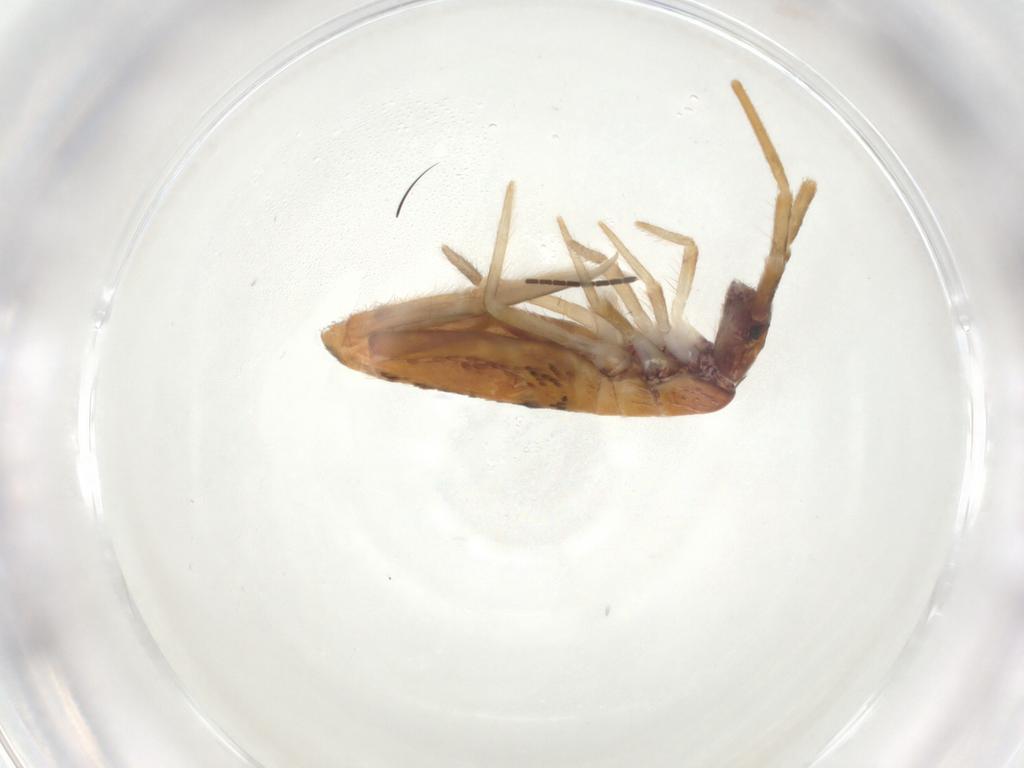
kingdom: Animalia
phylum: Arthropoda
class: Collembola
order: Entomobryomorpha
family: Entomobryidae
